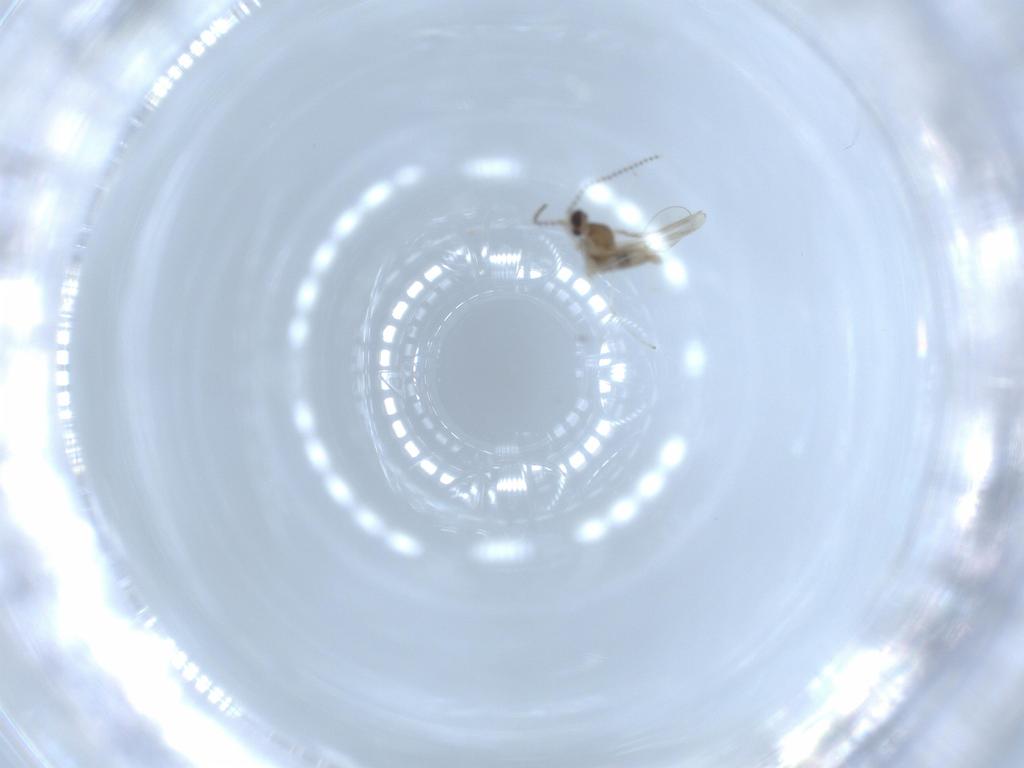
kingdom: Animalia
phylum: Arthropoda
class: Insecta
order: Diptera
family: Cecidomyiidae
